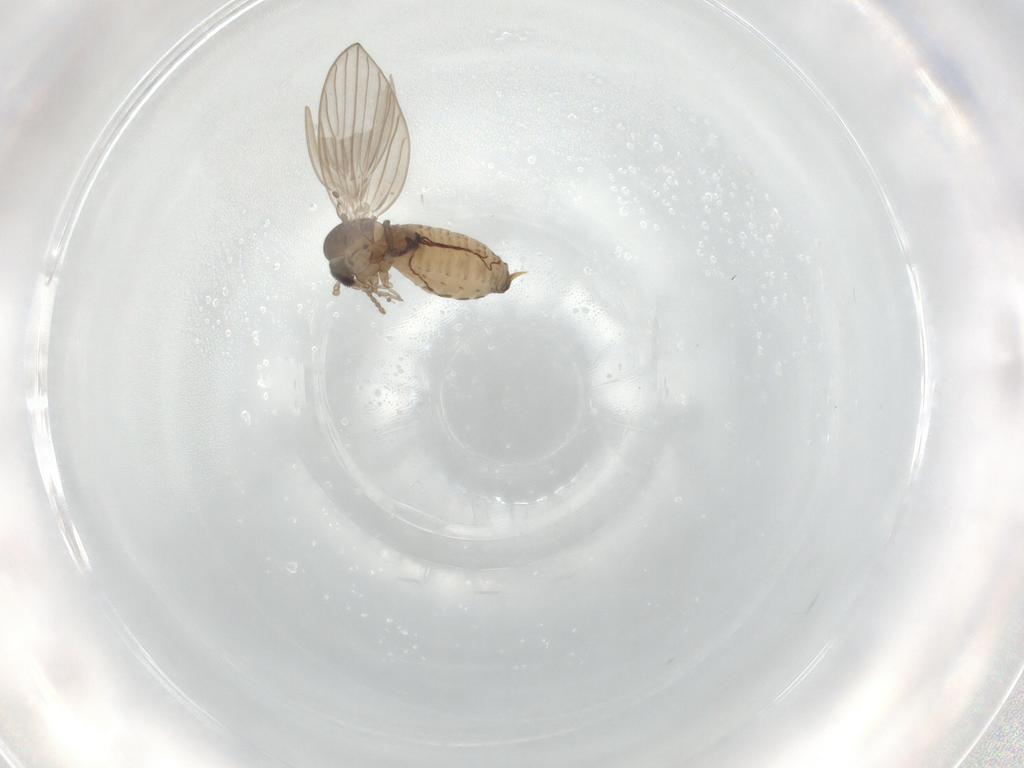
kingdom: Animalia
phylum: Arthropoda
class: Insecta
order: Diptera
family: Psychodidae
